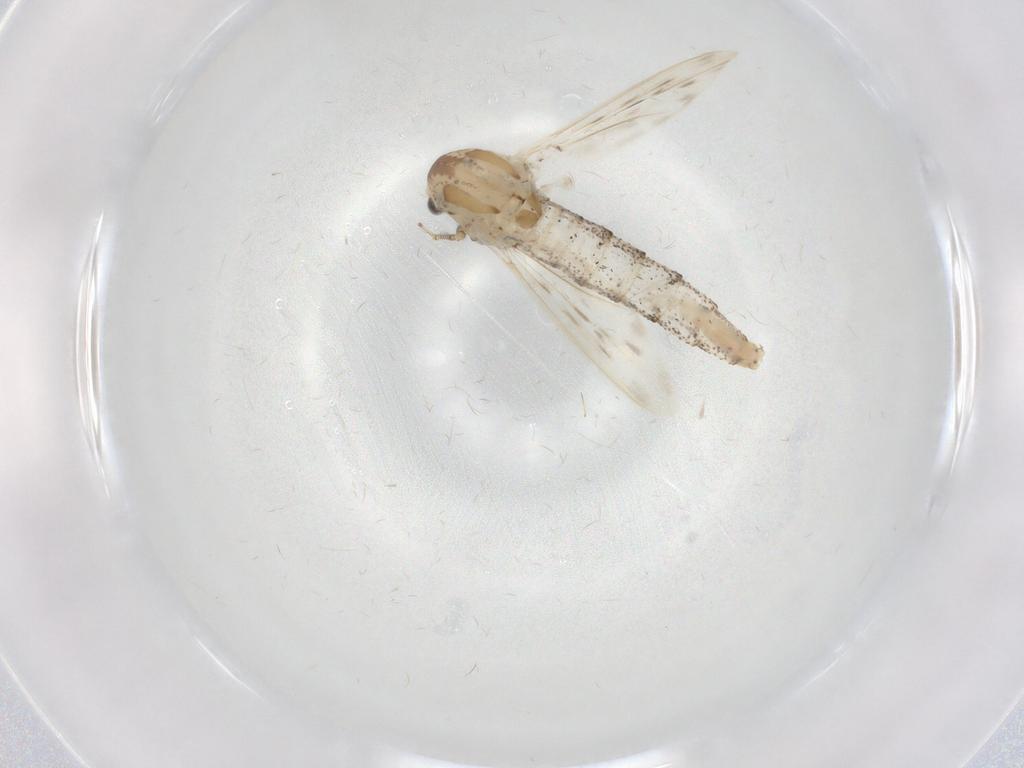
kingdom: Animalia
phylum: Arthropoda
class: Insecta
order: Diptera
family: Chaoboridae
